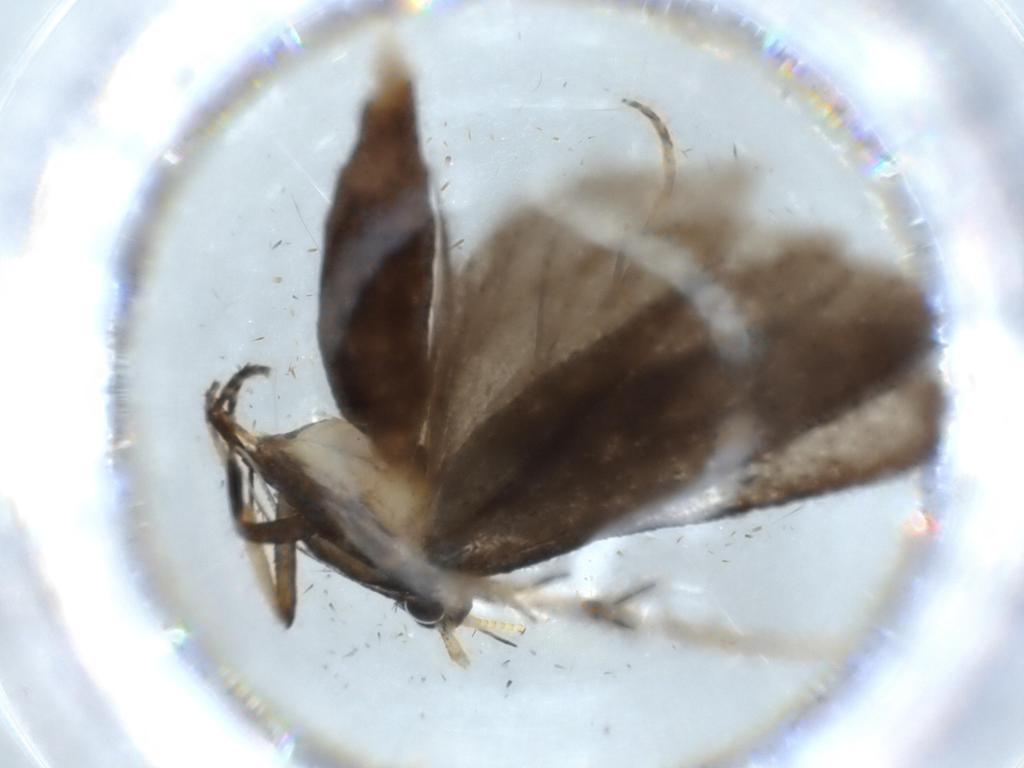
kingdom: Animalia
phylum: Arthropoda
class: Insecta
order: Lepidoptera
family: Lecithoceridae
